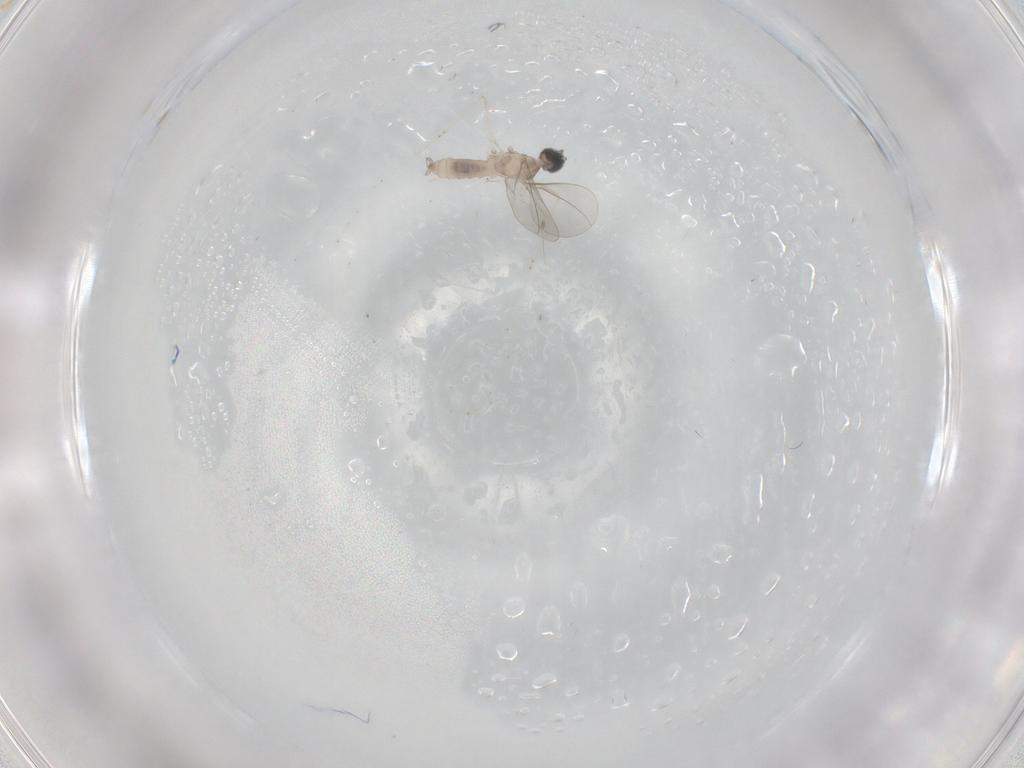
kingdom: Animalia
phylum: Arthropoda
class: Insecta
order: Diptera
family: Cecidomyiidae
